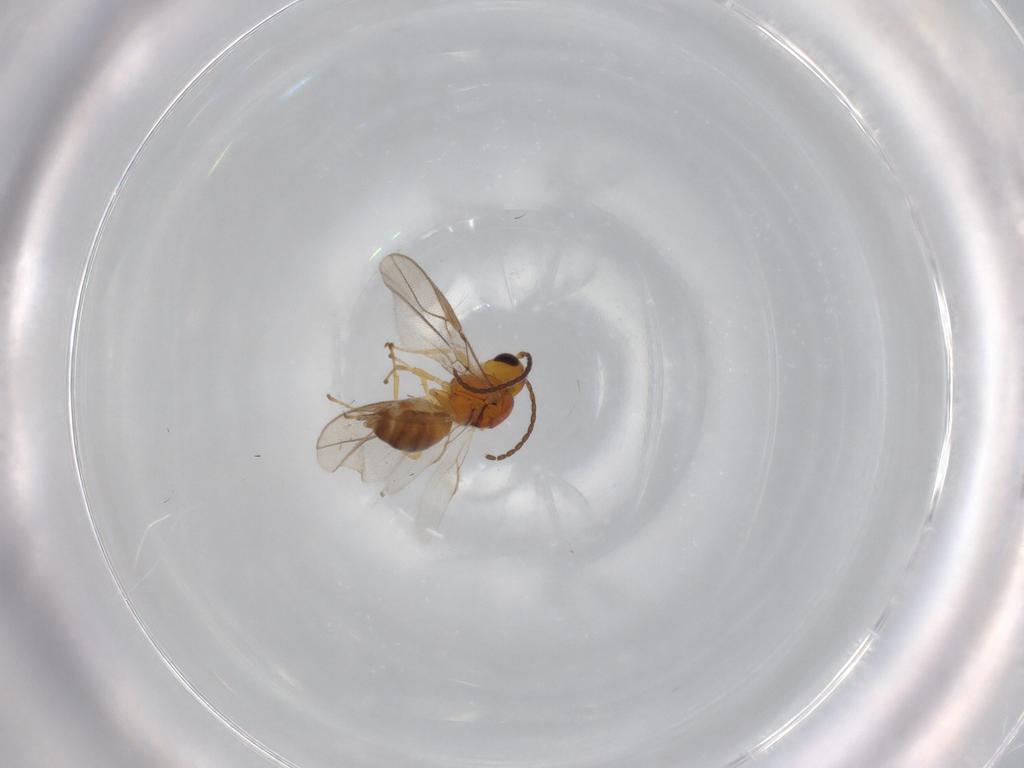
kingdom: Animalia
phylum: Arthropoda
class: Insecta
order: Hymenoptera
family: Braconidae
